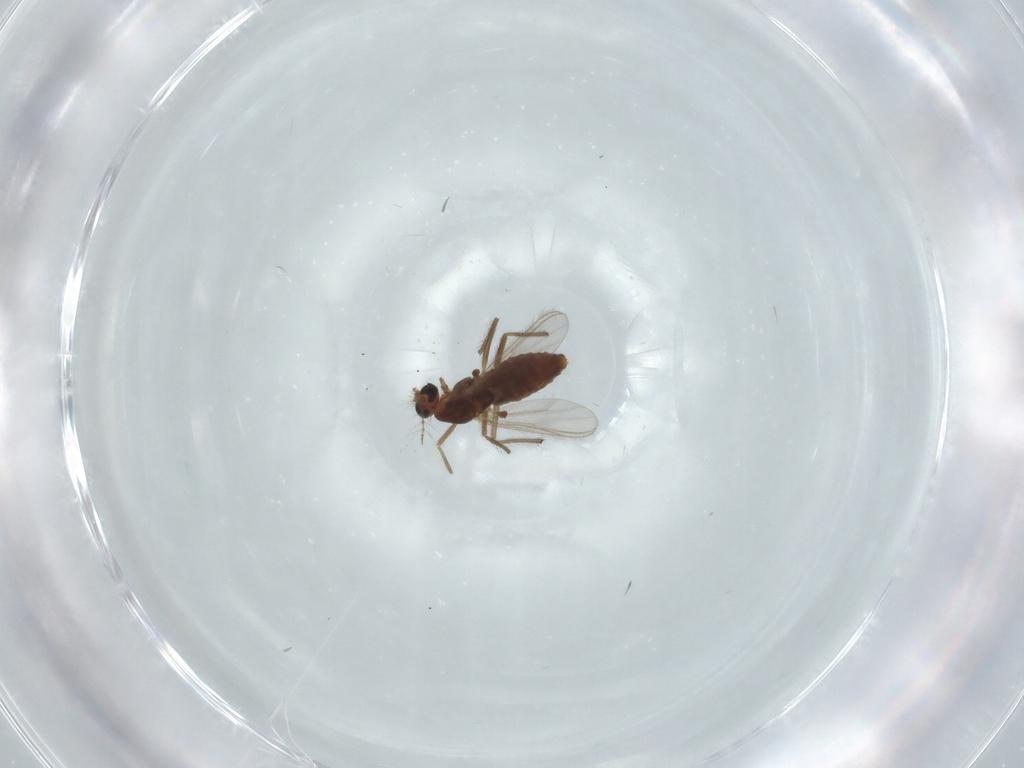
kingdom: Animalia
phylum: Arthropoda
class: Insecta
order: Diptera
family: Chironomidae
